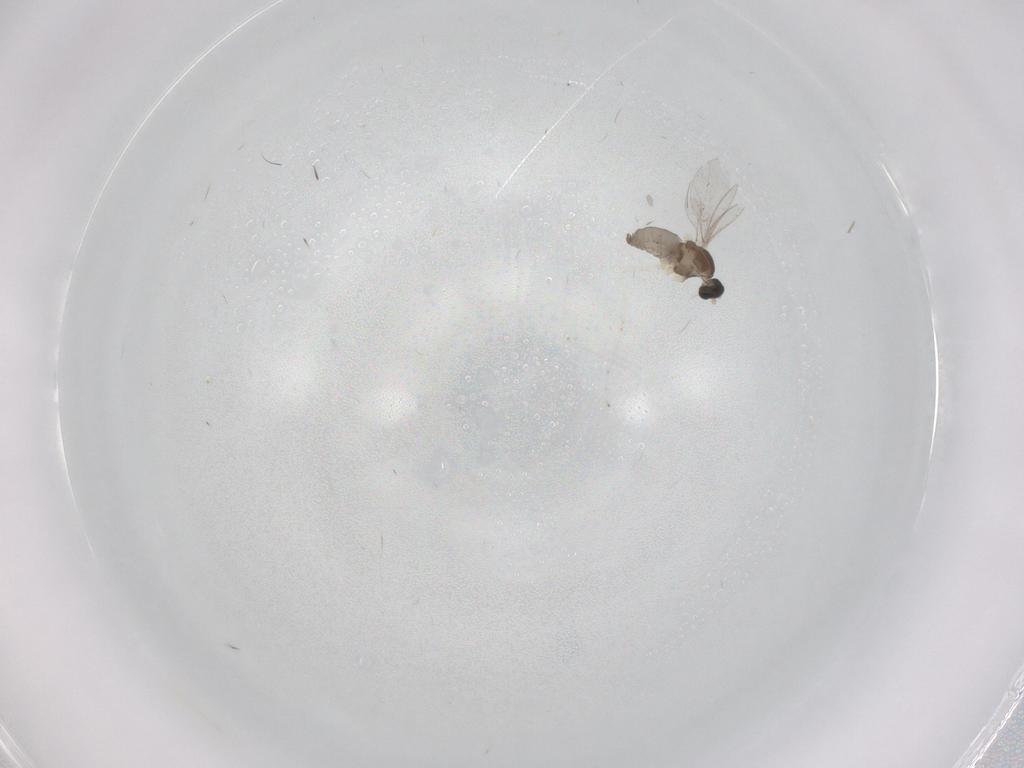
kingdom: Animalia
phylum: Arthropoda
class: Insecta
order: Diptera
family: Cecidomyiidae
